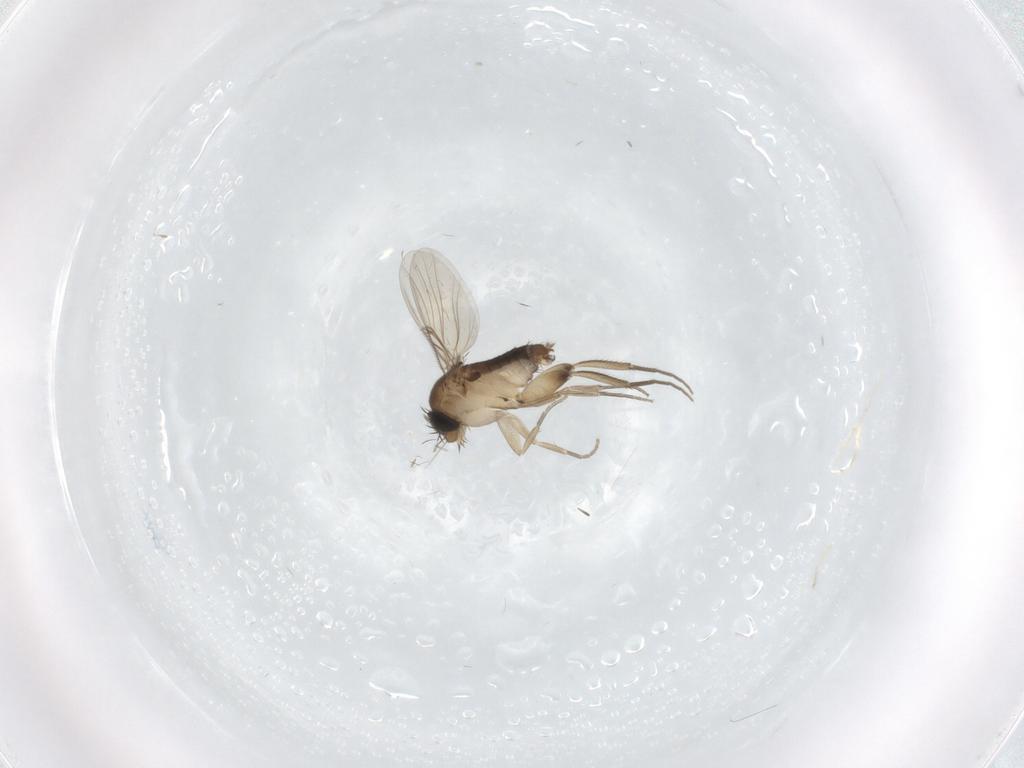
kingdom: Animalia
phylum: Arthropoda
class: Insecta
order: Diptera
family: Phoridae
